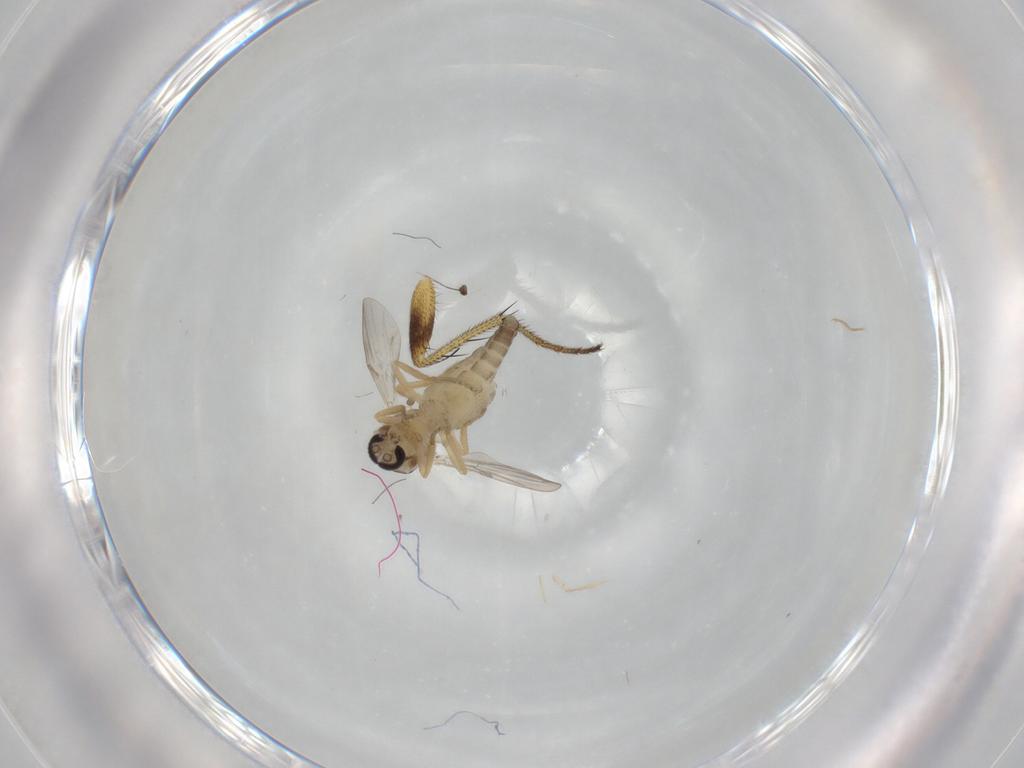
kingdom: Animalia
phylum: Arthropoda
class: Insecta
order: Diptera
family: Ceratopogonidae
